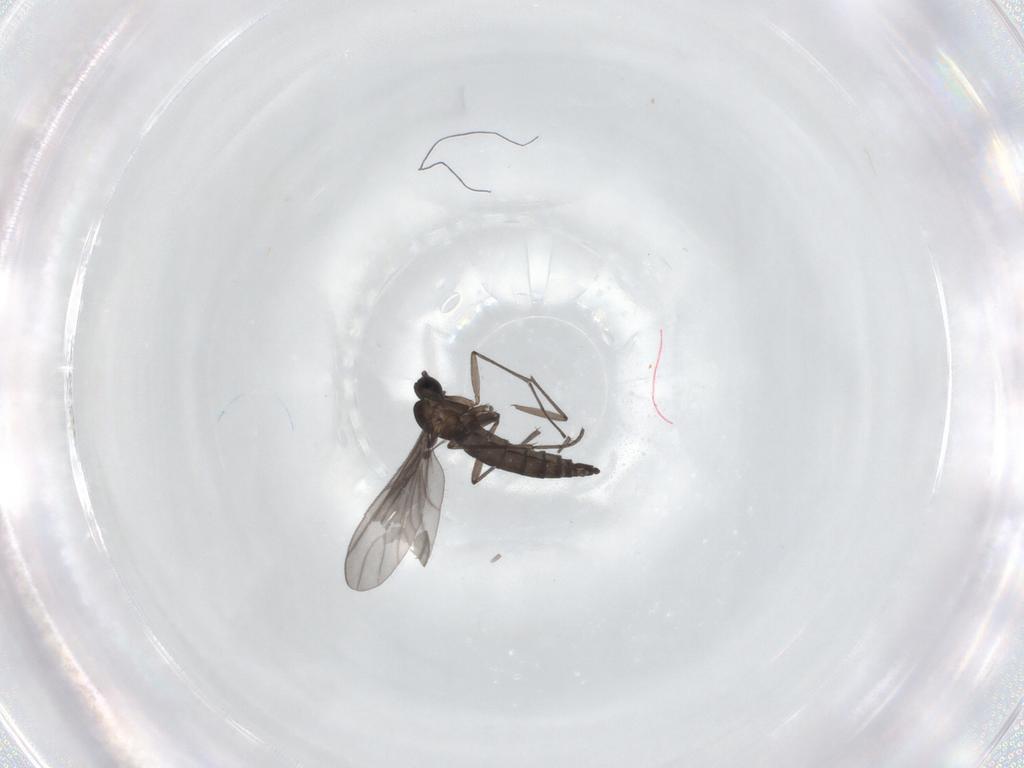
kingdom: Animalia
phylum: Arthropoda
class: Insecta
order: Diptera
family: Sciaridae
